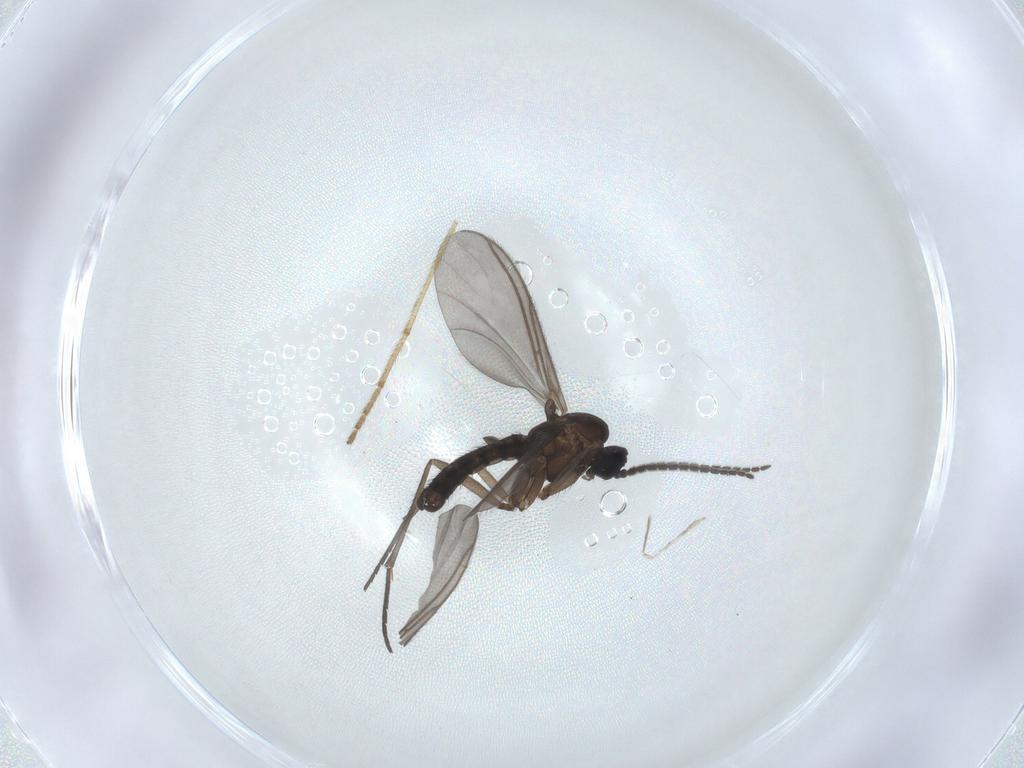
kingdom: Animalia
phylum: Arthropoda
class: Insecta
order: Diptera
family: Sciaridae
